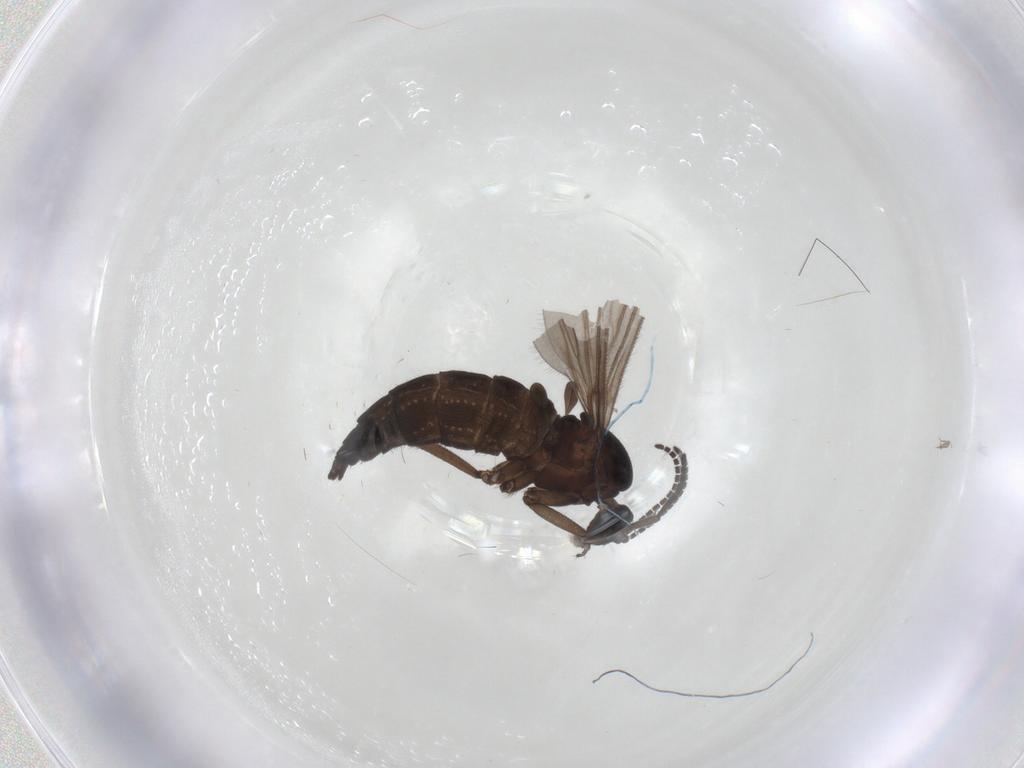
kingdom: Animalia
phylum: Arthropoda
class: Insecta
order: Diptera
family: Sciaridae
